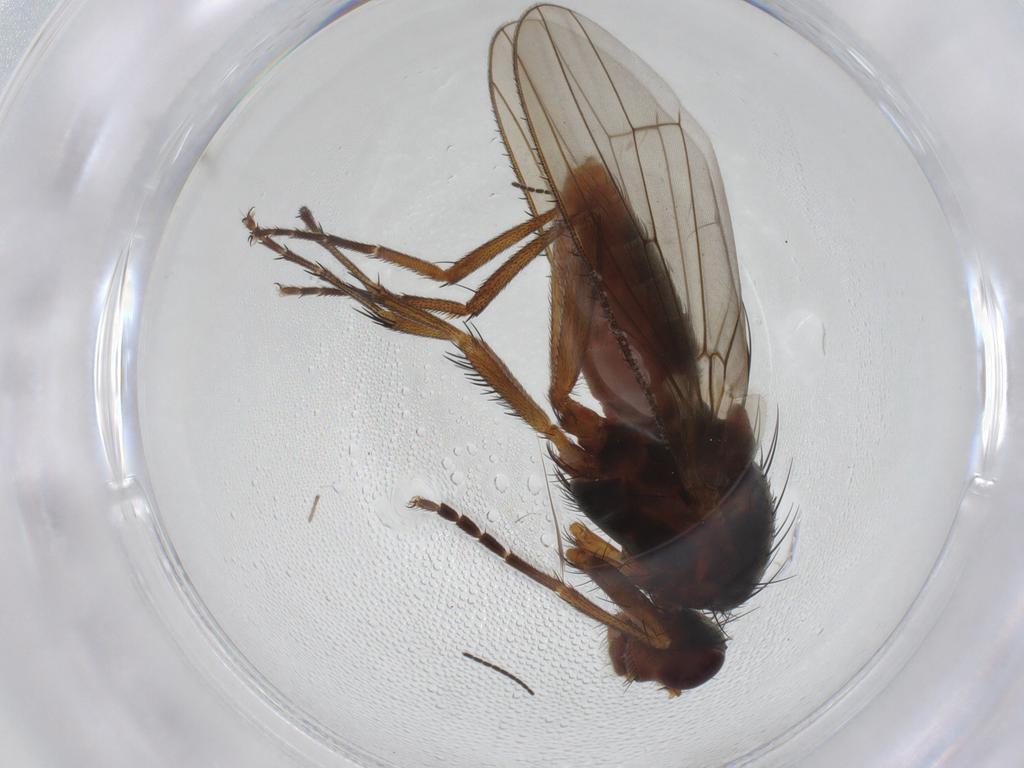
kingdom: Animalia
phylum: Arthropoda
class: Insecta
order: Diptera
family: Heleomyzidae
